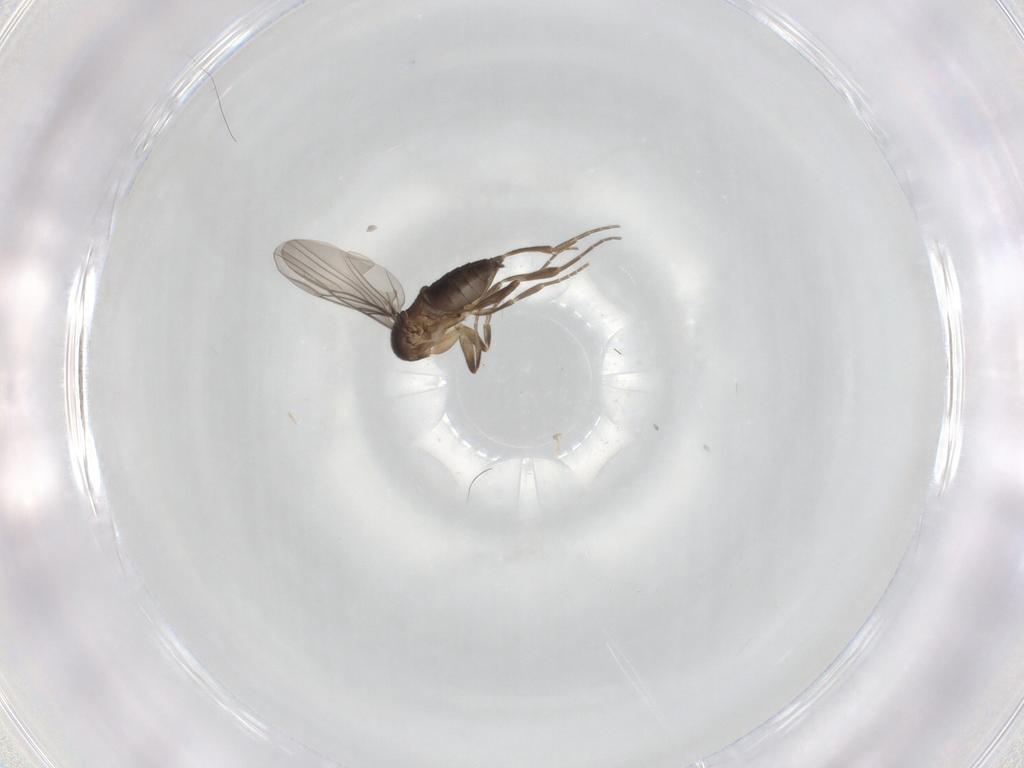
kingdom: Animalia
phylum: Arthropoda
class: Insecta
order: Diptera
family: Phoridae
